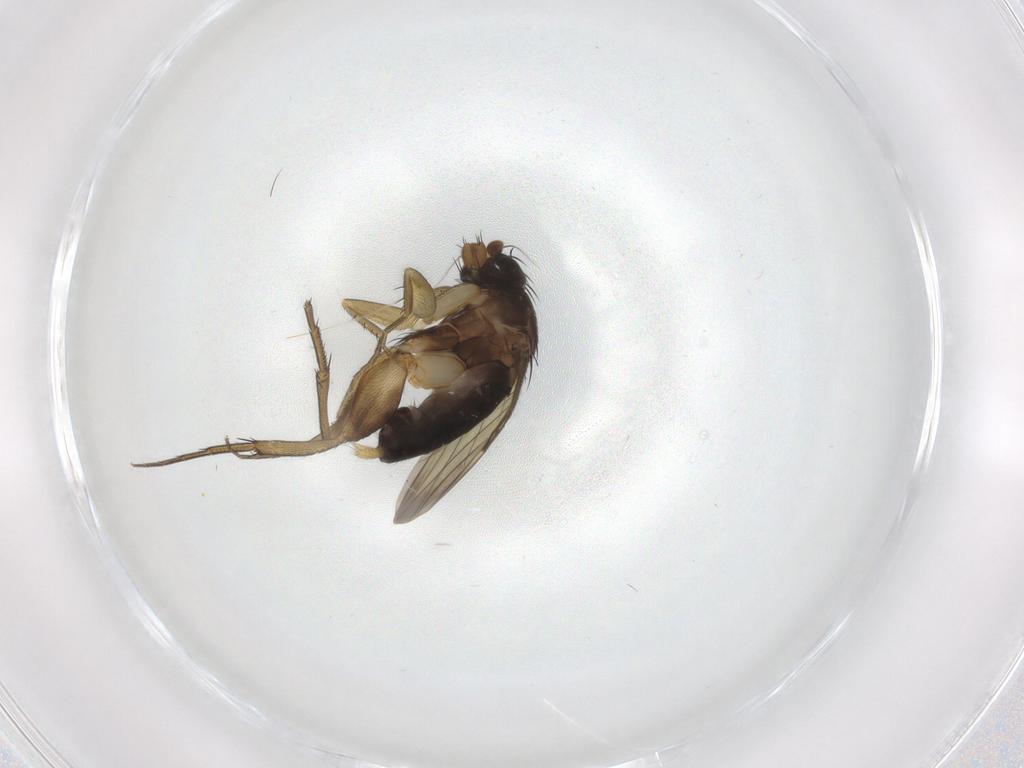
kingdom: Animalia
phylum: Arthropoda
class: Insecta
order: Diptera
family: Phoridae
